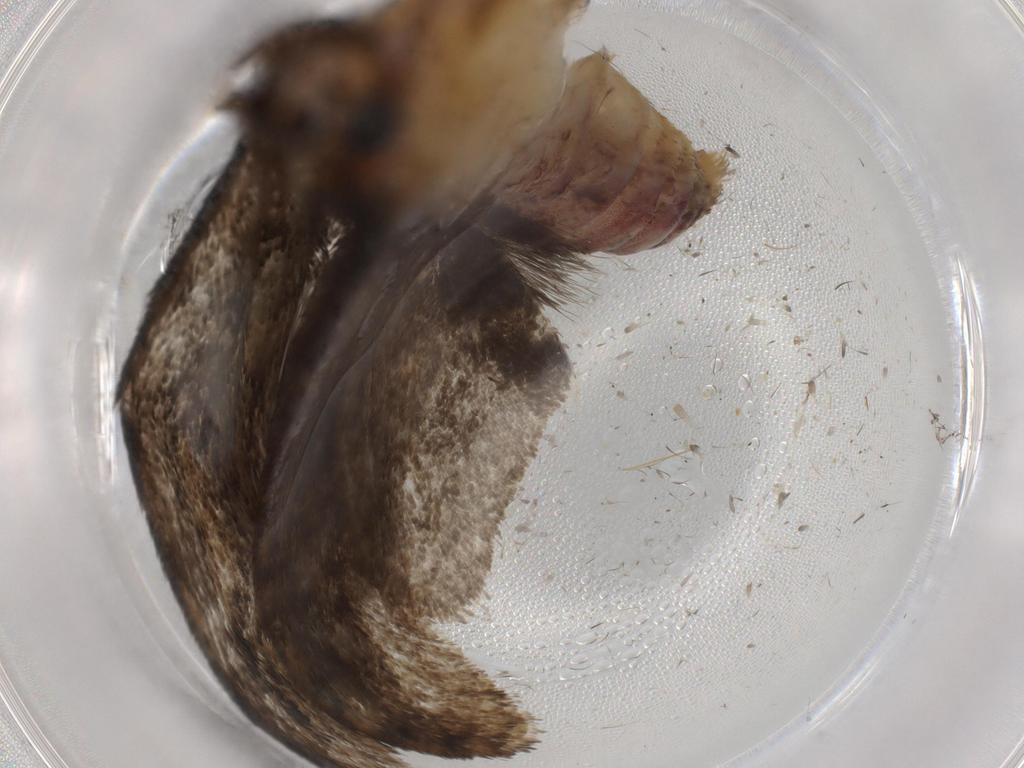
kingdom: Animalia
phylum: Arthropoda
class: Insecta
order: Lepidoptera
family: Tineidae
